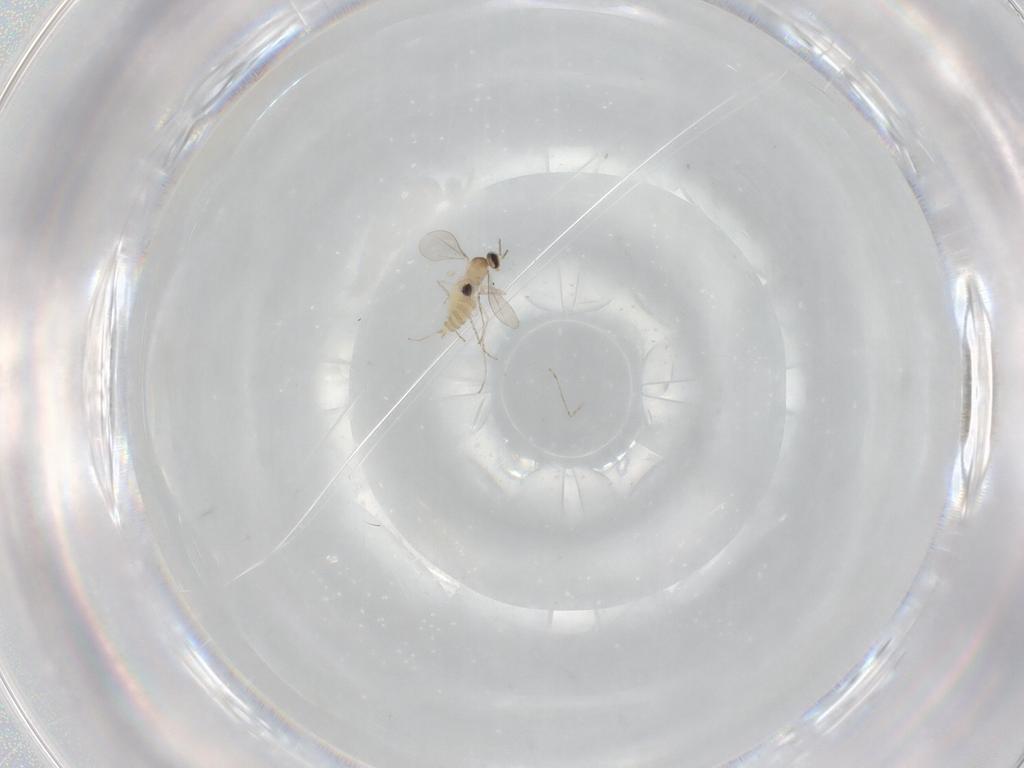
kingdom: Animalia
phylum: Arthropoda
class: Insecta
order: Diptera
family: Cecidomyiidae
